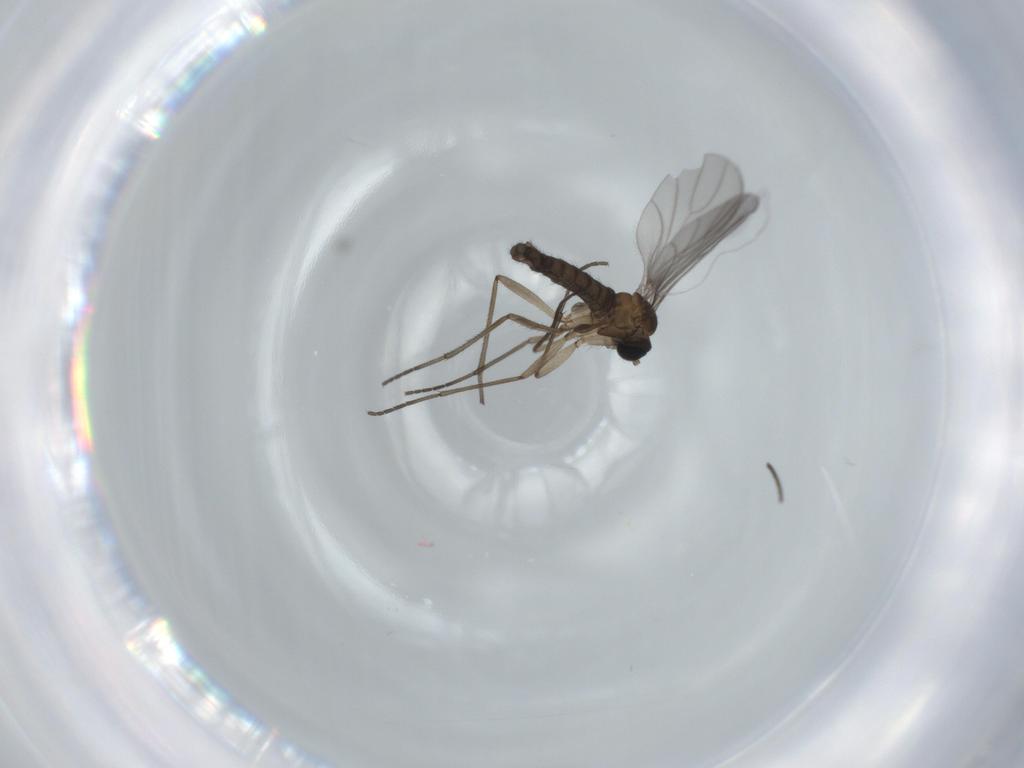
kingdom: Animalia
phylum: Arthropoda
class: Insecta
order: Diptera
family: Sciaridae
